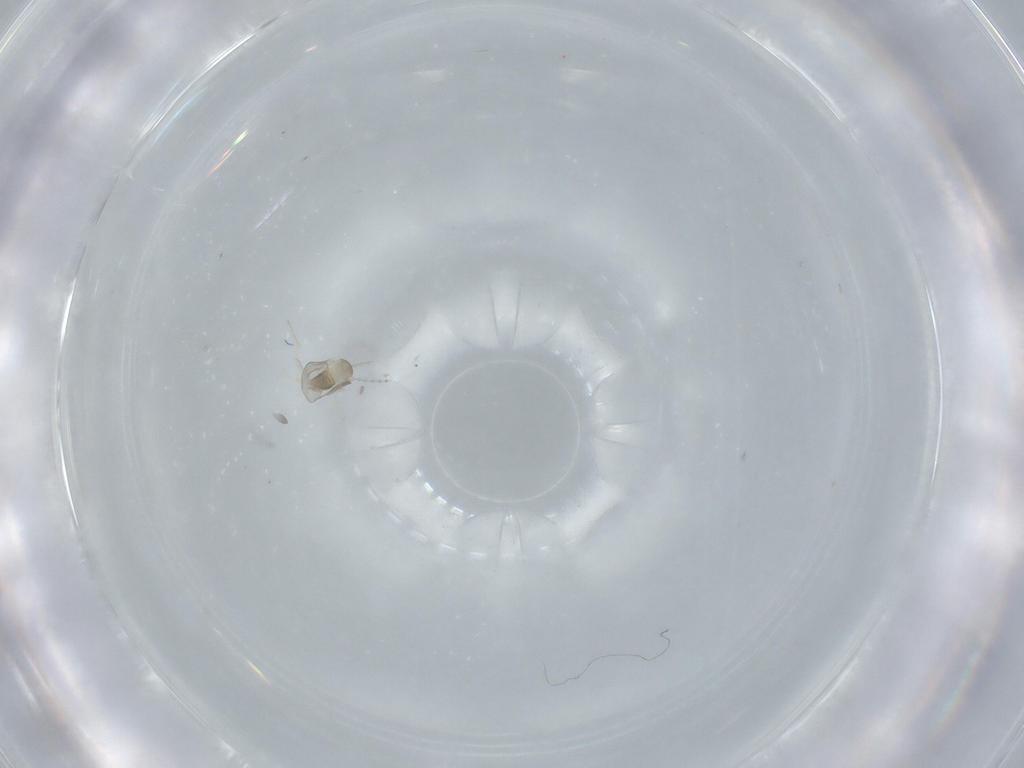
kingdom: Animalia
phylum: Arthropoda
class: Insecta
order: Diptera
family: Cecidomyiidae
